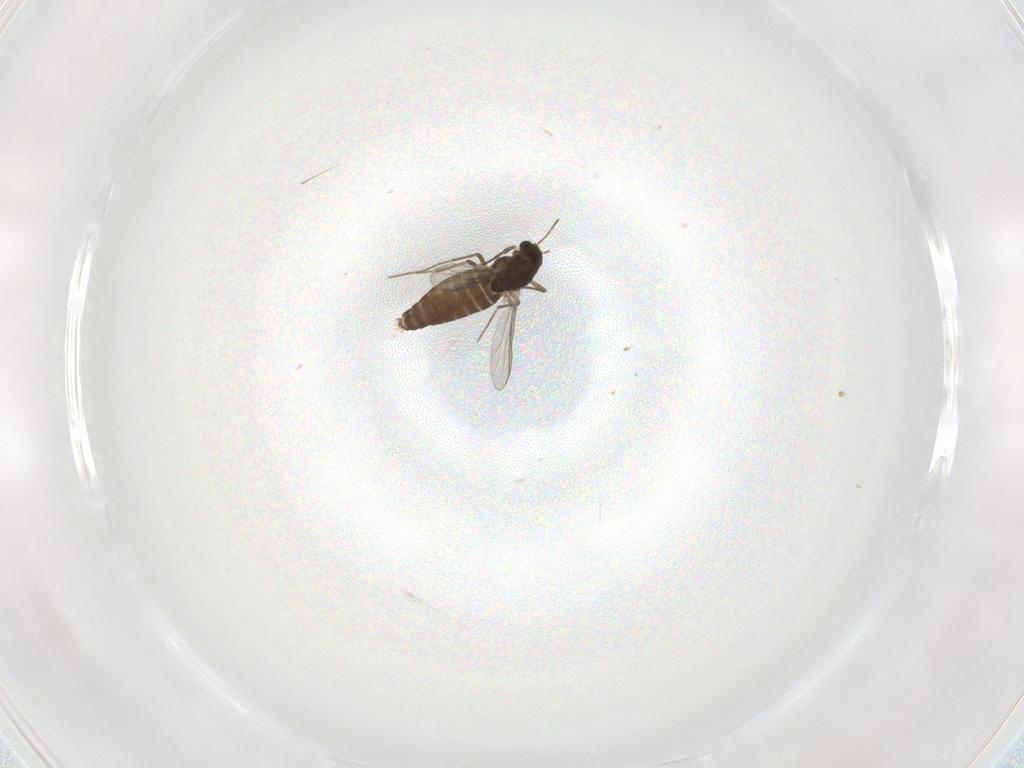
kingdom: Animalia
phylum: Arthropoda
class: Insecta
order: Diptera
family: Chironomidae
